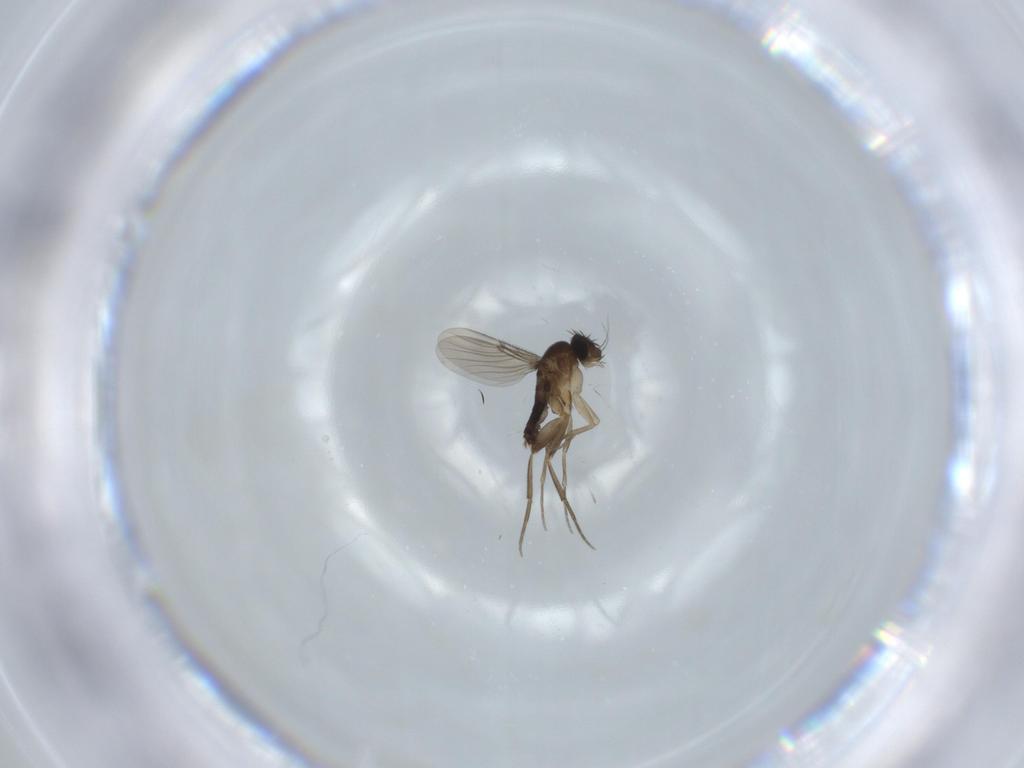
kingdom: Animalia
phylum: Arthropoda
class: Insecta
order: Diptera
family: Phoridae
